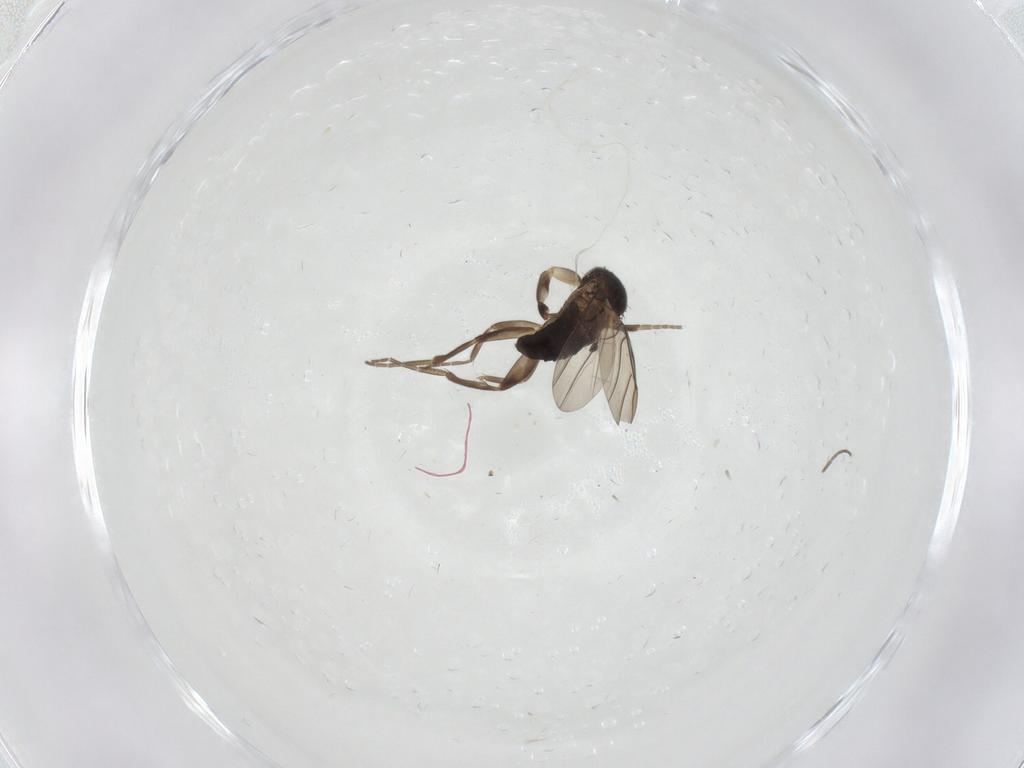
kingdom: Animalia
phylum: Arthropoda
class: Insecta
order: Diptera
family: Phoridae
